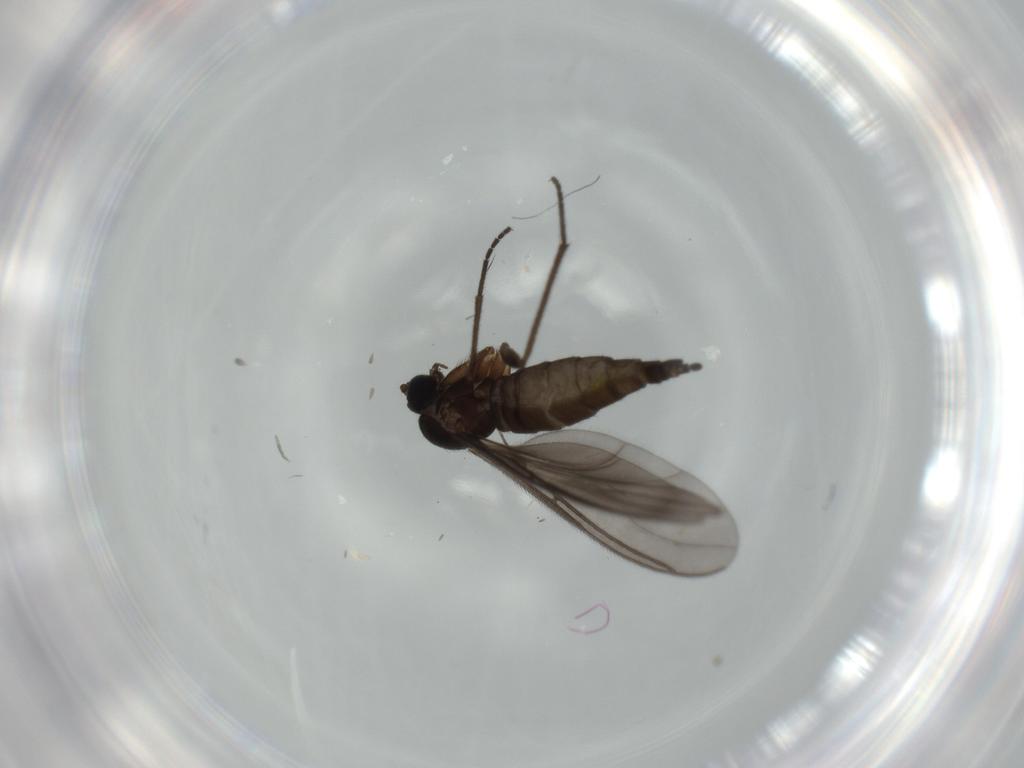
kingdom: Animalia
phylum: Arthropoda
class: Insecta
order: Diptera
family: Sciaridae
